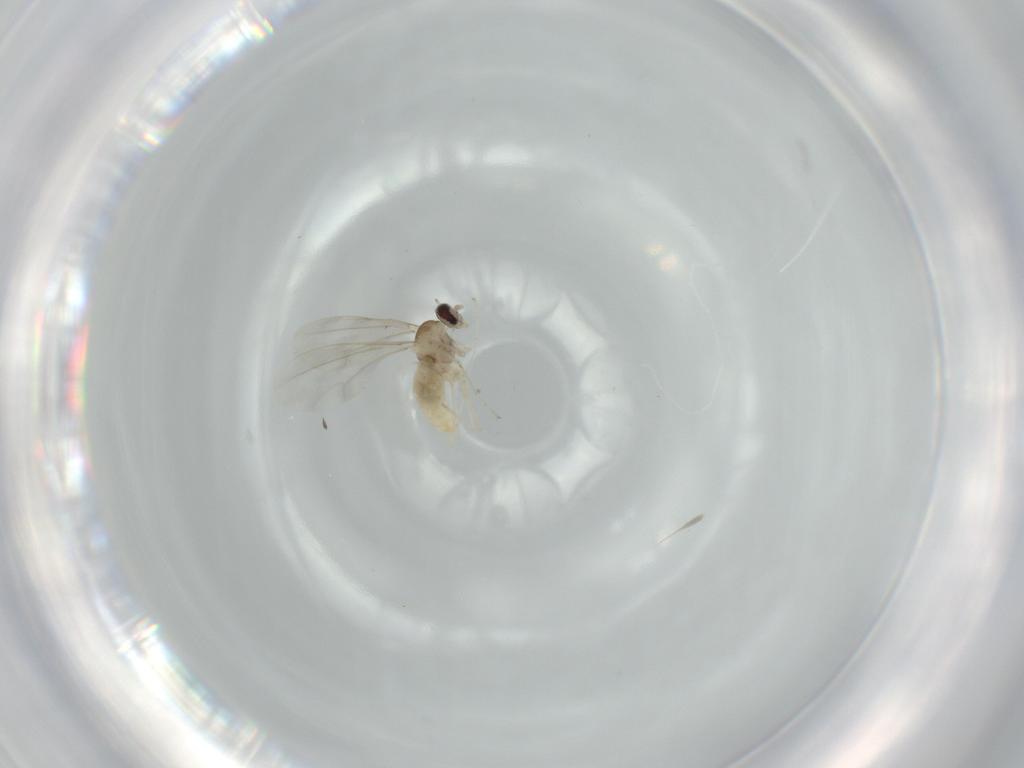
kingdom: Animalia
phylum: Arthropoda
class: Insecta
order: Diptera
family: Cecidomyiidae
